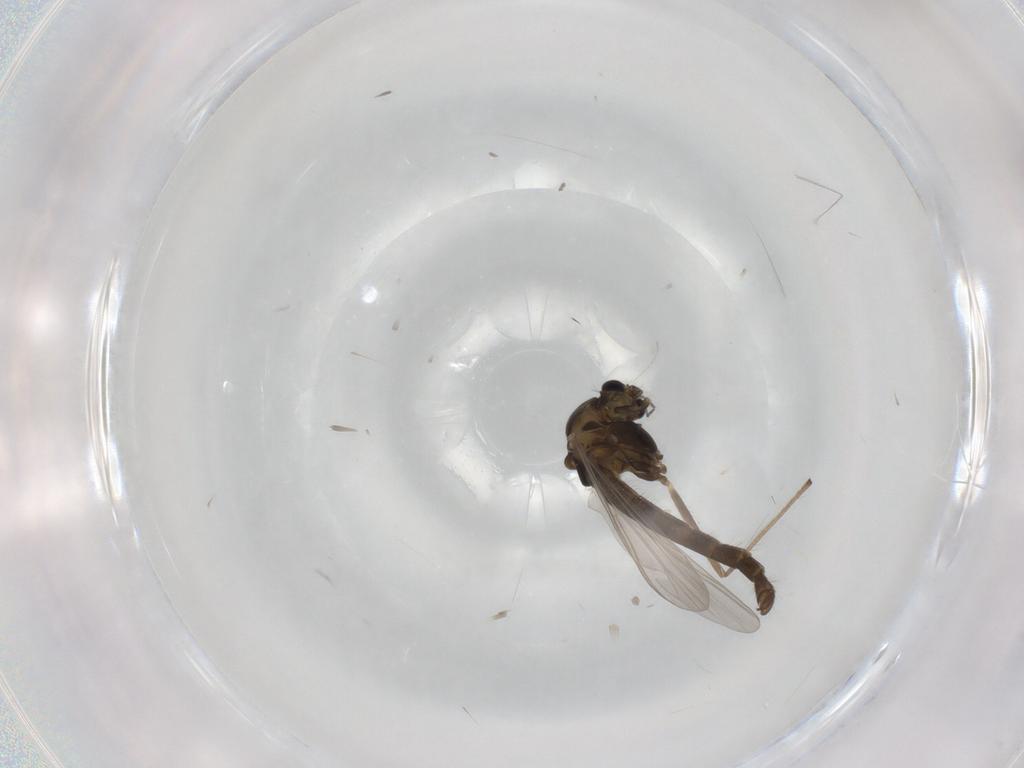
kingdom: Animalia
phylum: Arthropoda
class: Insecta
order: Diptera
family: Chironomidae
